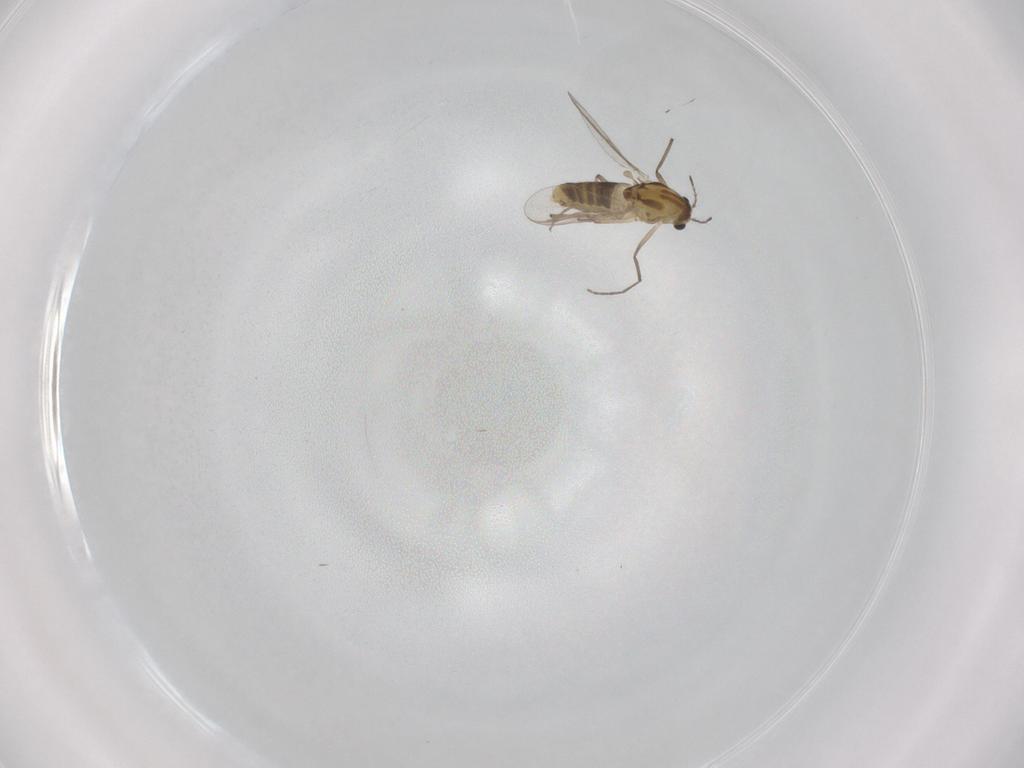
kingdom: Animalia
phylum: Arthropoda
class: Insecta
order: Diptera
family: Chironomidae
